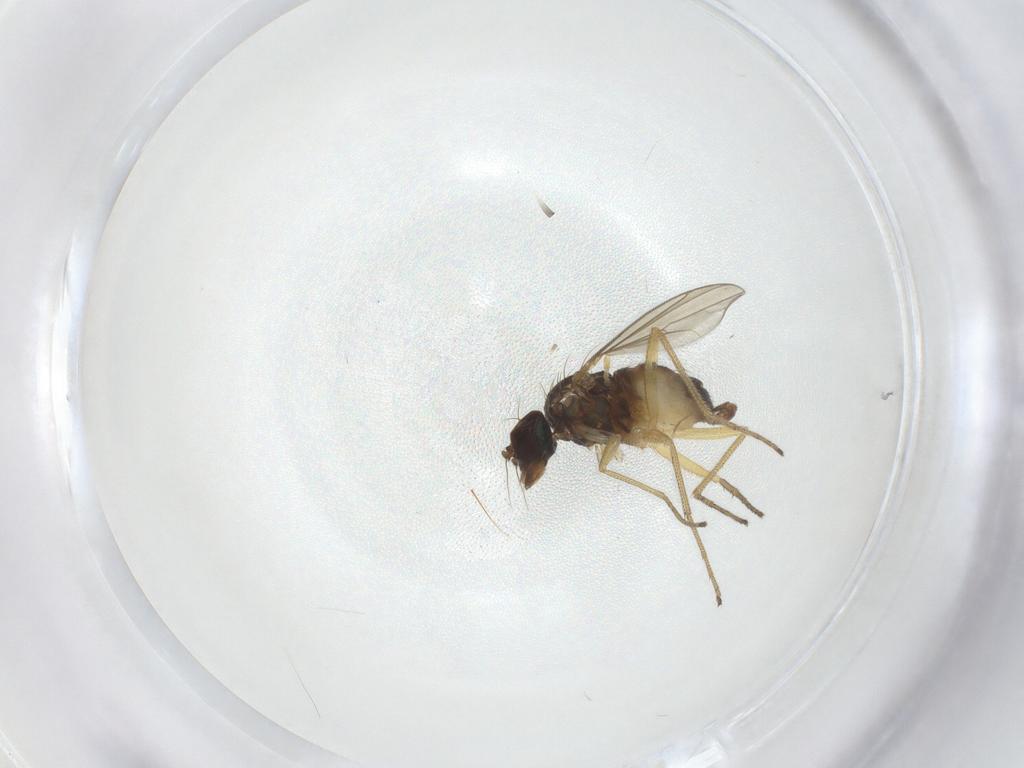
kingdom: Animalia
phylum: Arthropoda
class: Insecta
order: Diptera
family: Dolichopodidae
